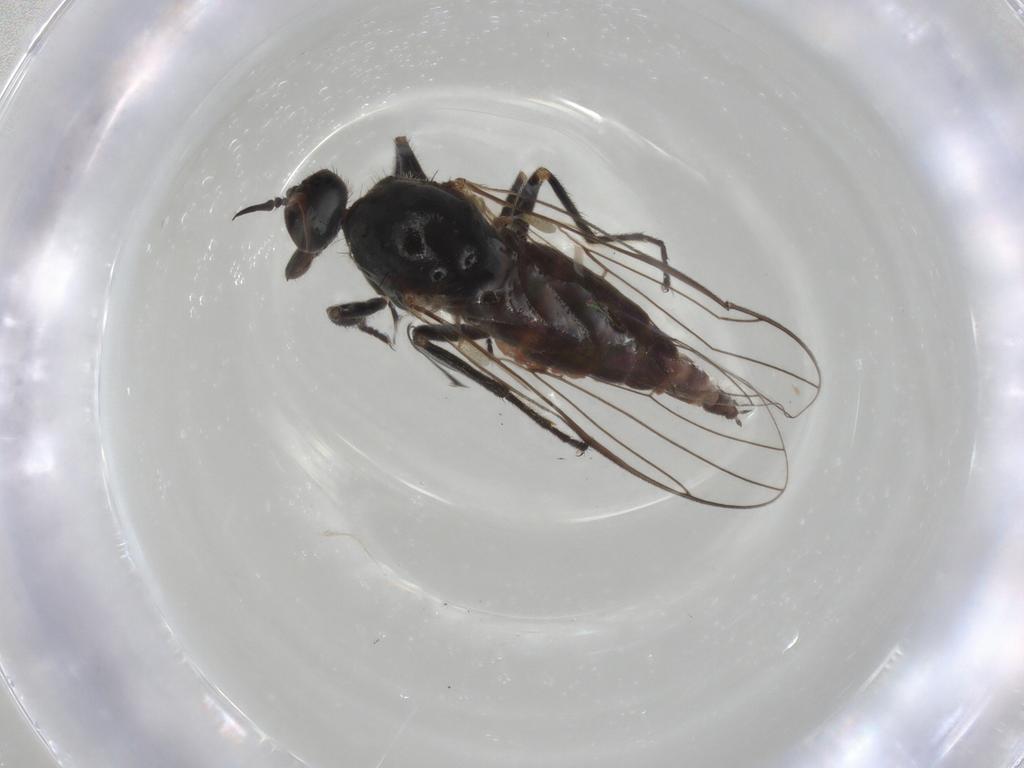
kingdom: Animalia
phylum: Arthropoda
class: Insecta
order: Diptera
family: Empididae
